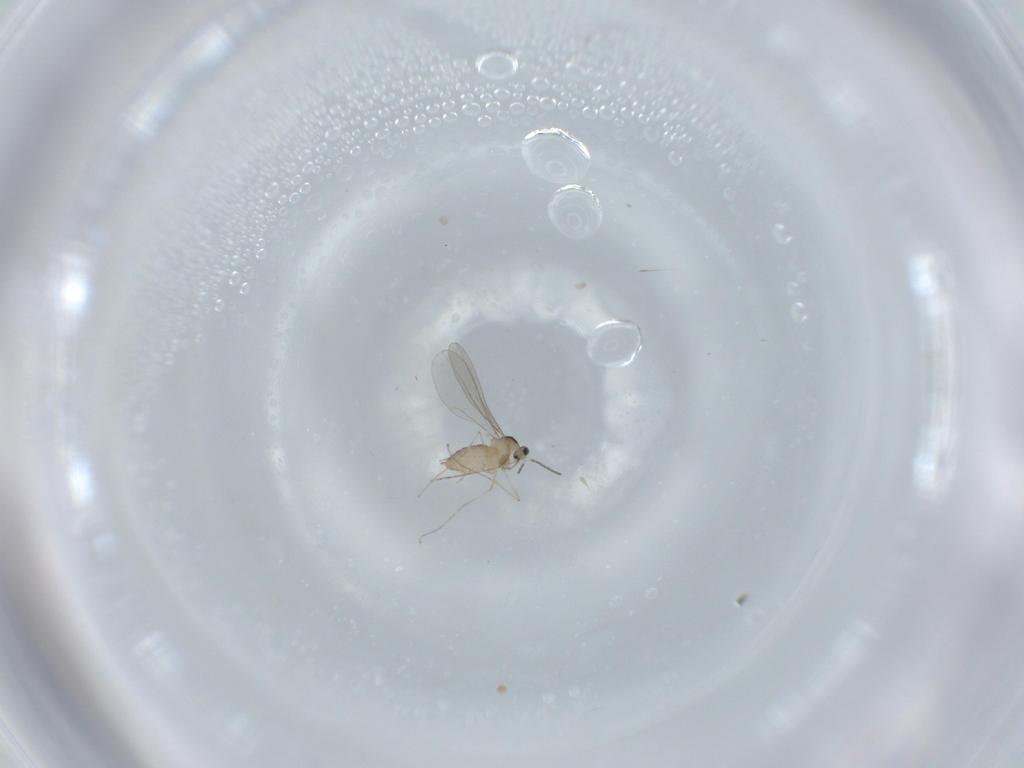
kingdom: Animalia
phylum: Arthropoda
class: Insecta
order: Diptera
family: Cecidomyiidae
